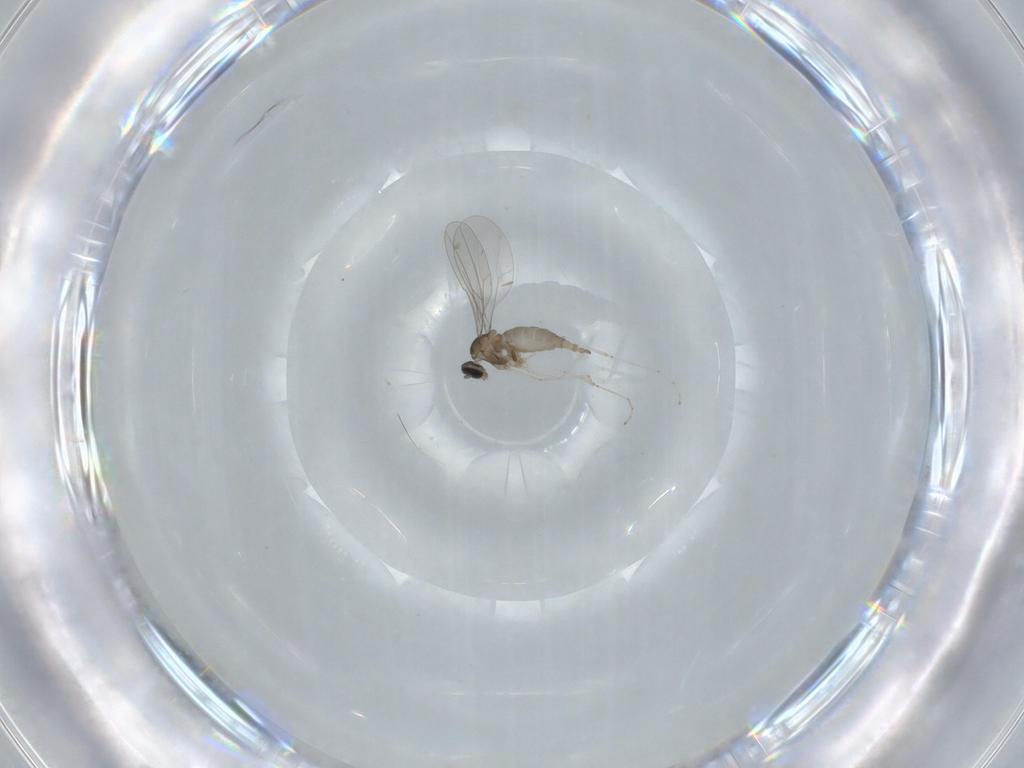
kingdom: Animalia
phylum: Arthropoda
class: Insecta
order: Diptera
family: Cecidomyiidae
